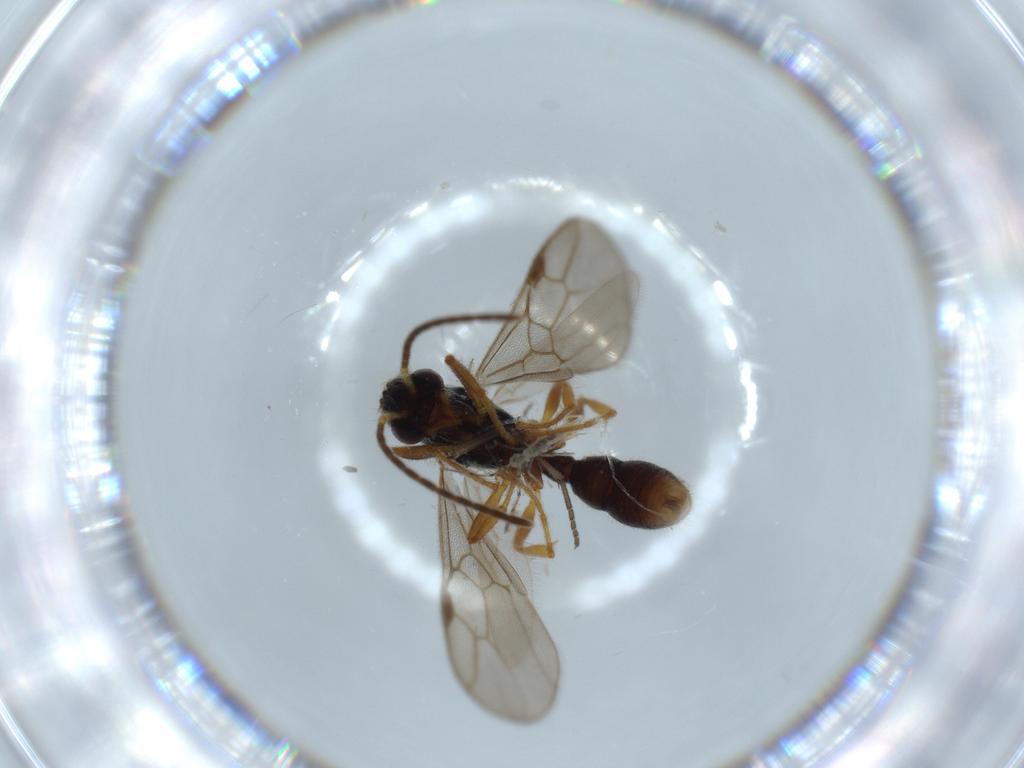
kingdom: Animalia
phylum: Arthropoda
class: Insecta
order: Hymenoptera
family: Formicidae
